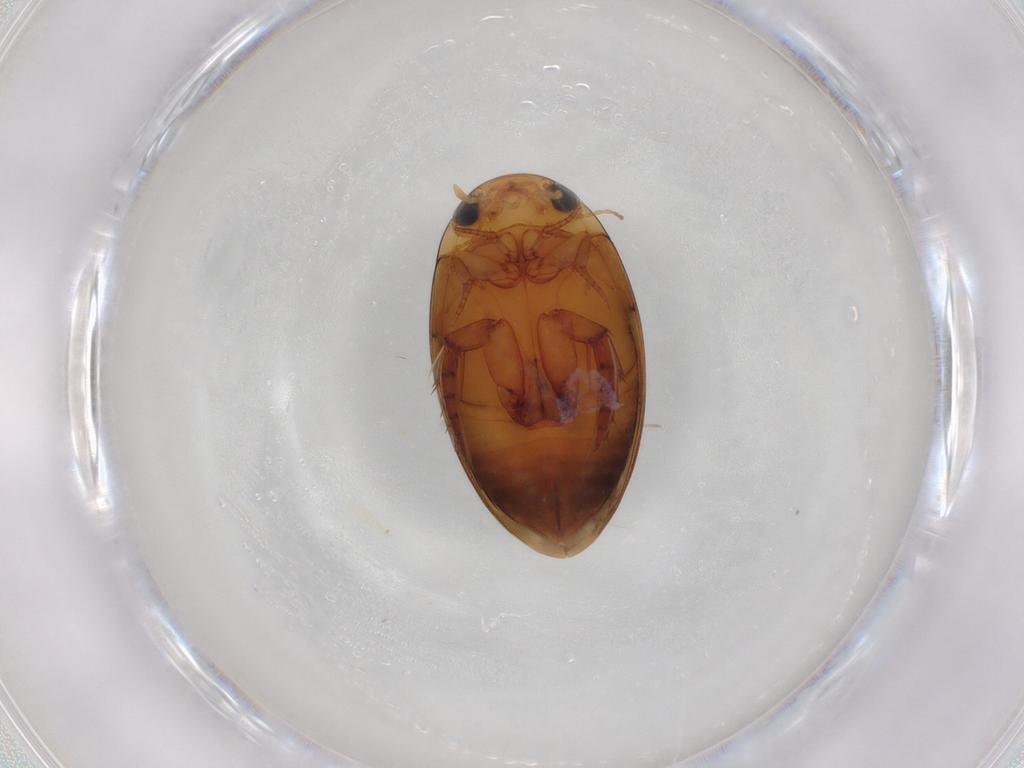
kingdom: Animalia
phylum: Arthropoda
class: Insecta
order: Coleoptera
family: Dytiscidae
